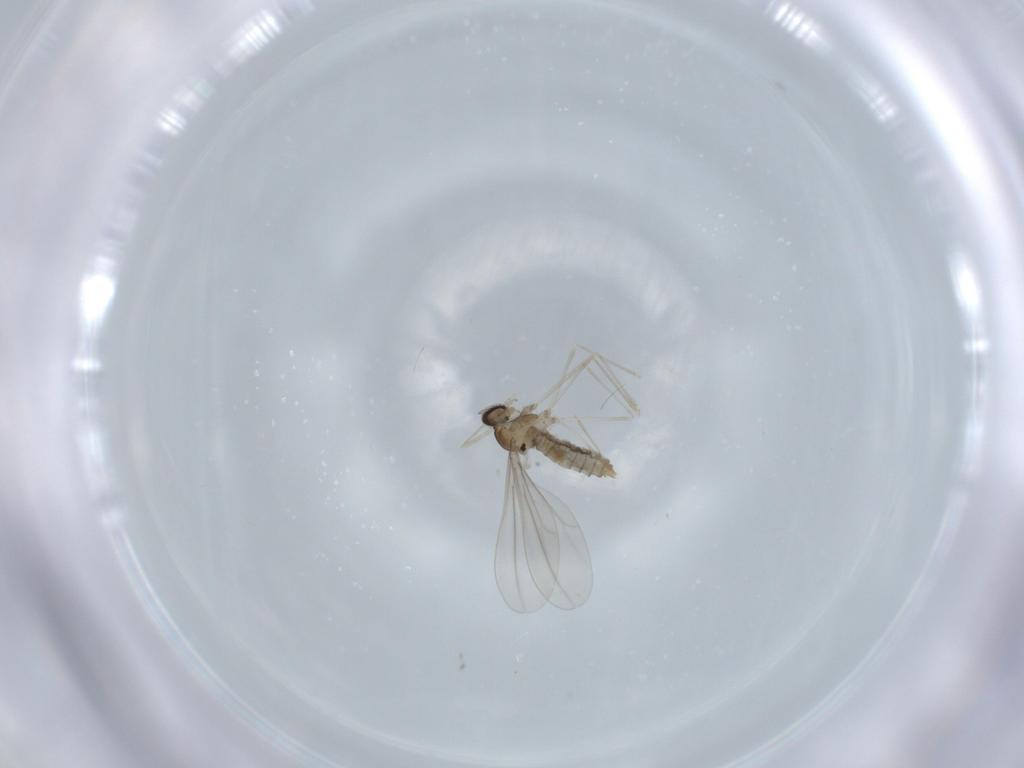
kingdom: Animalia
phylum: Arthropoda
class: Insecta
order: Diptera
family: Cecidomyiidae
